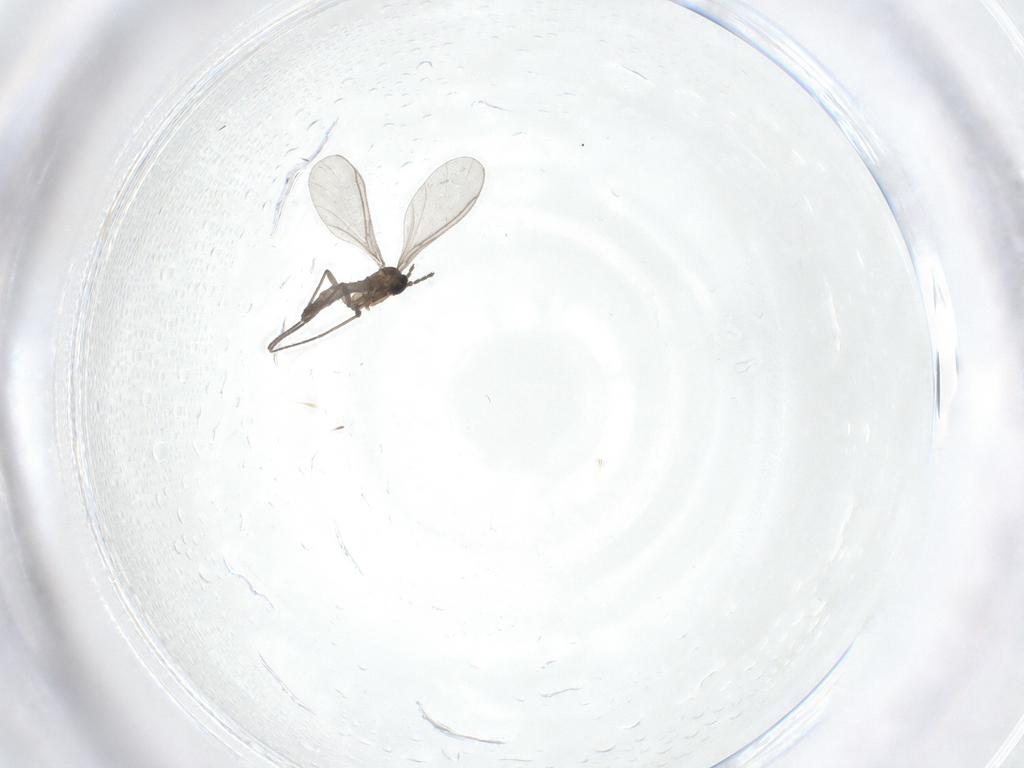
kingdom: Animalia
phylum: Arthropoda
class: Insecta
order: Diptera
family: Sciaridae
